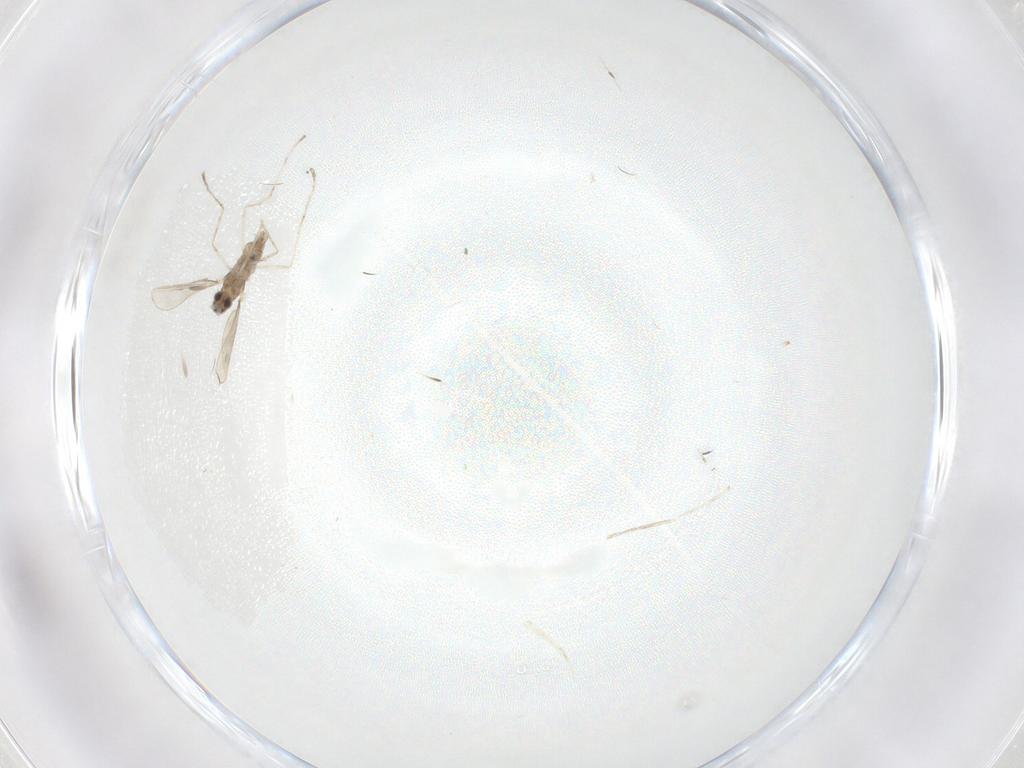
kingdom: Animalia
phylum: Arthropoda
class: Insecta
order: Diptera
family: Cecidomyiidae
